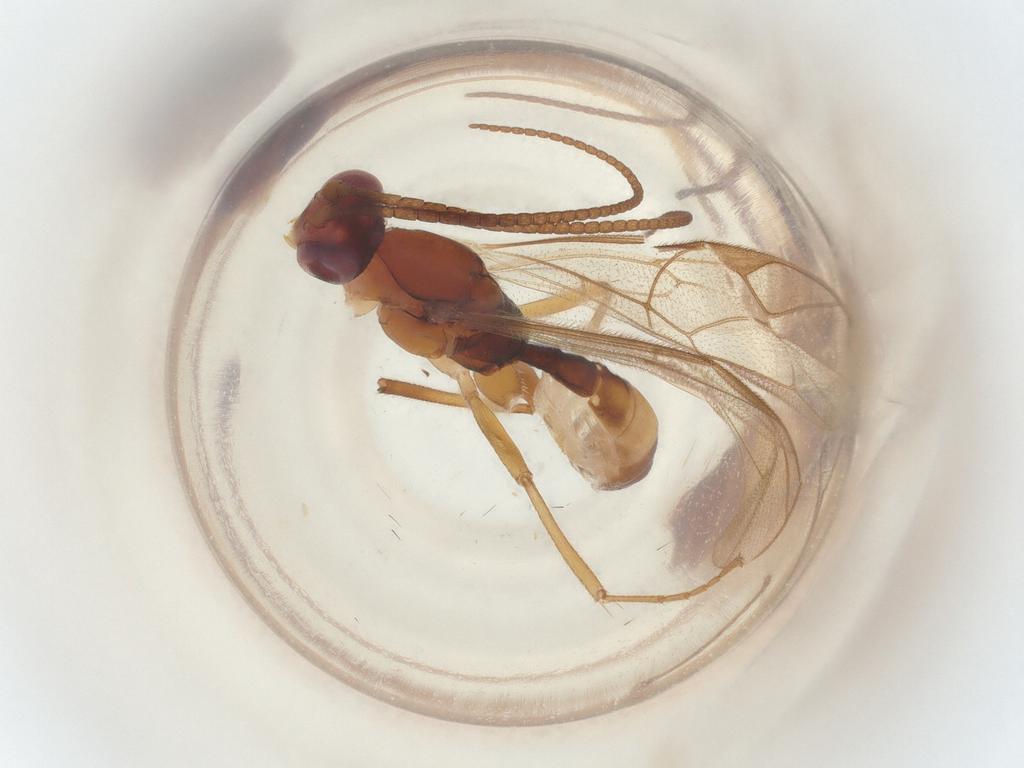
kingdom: Animalia
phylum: Arthropoda
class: Insecta
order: Hymenoptera
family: Ichneumonidae
